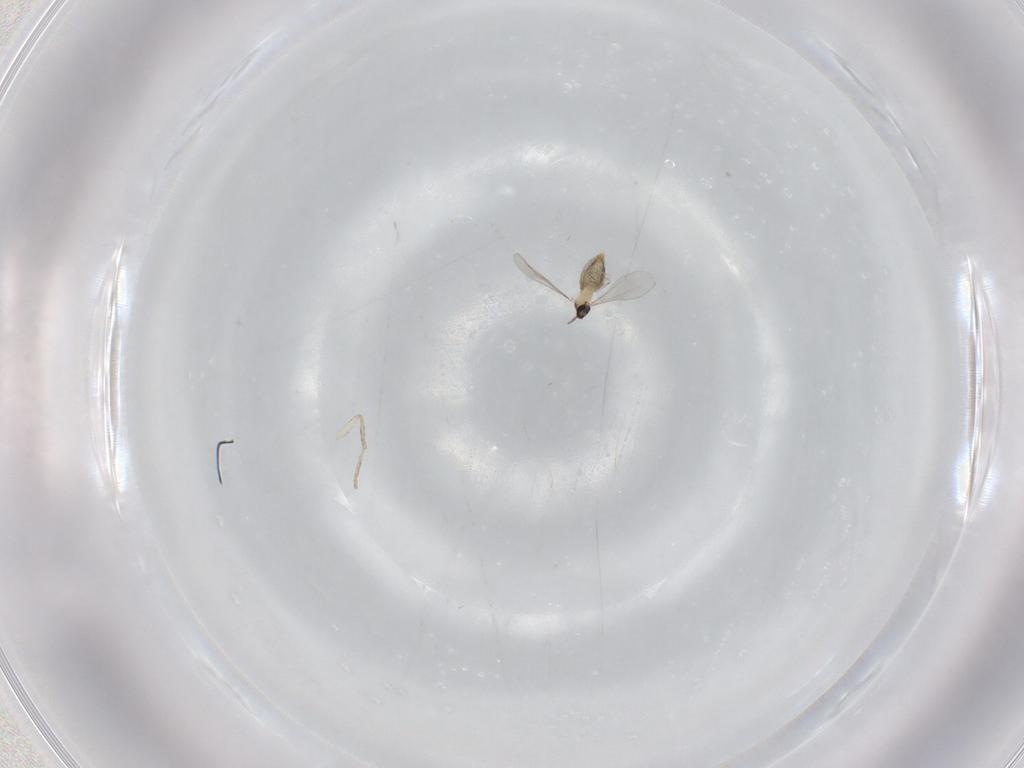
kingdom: Animalia
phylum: Arthropoda
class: Insecta
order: Diptera
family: Cecidomyiidae
